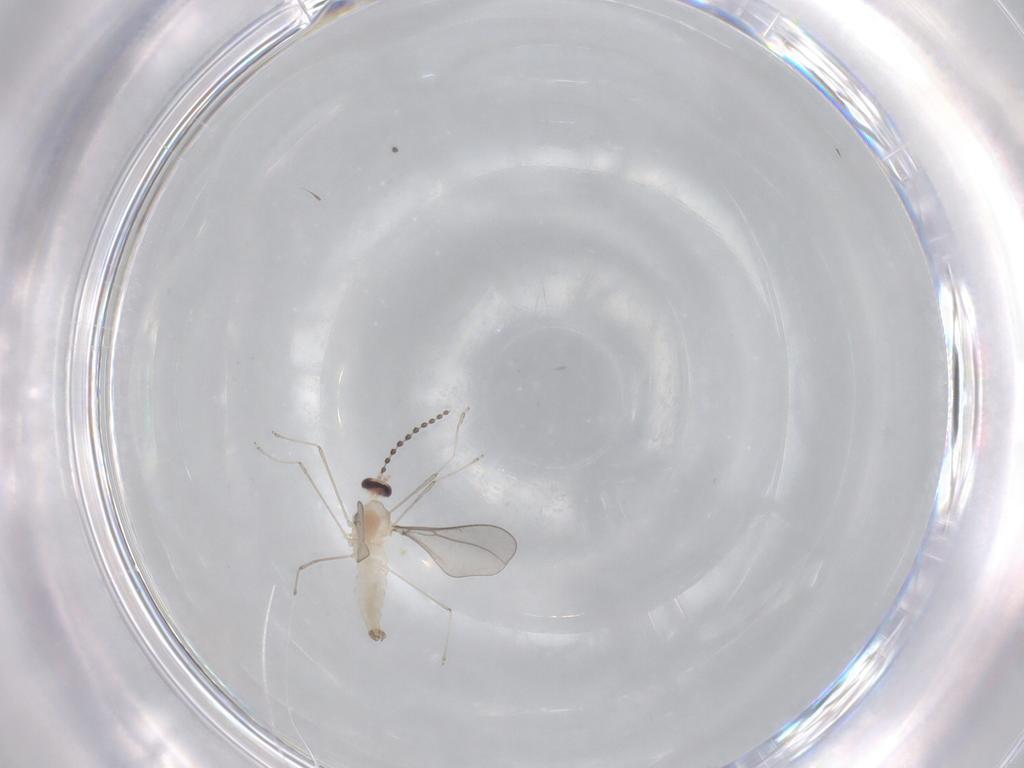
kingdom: Animalia
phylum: Arthropoda
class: Insecta
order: Diptera
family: Cecidomyiidae
